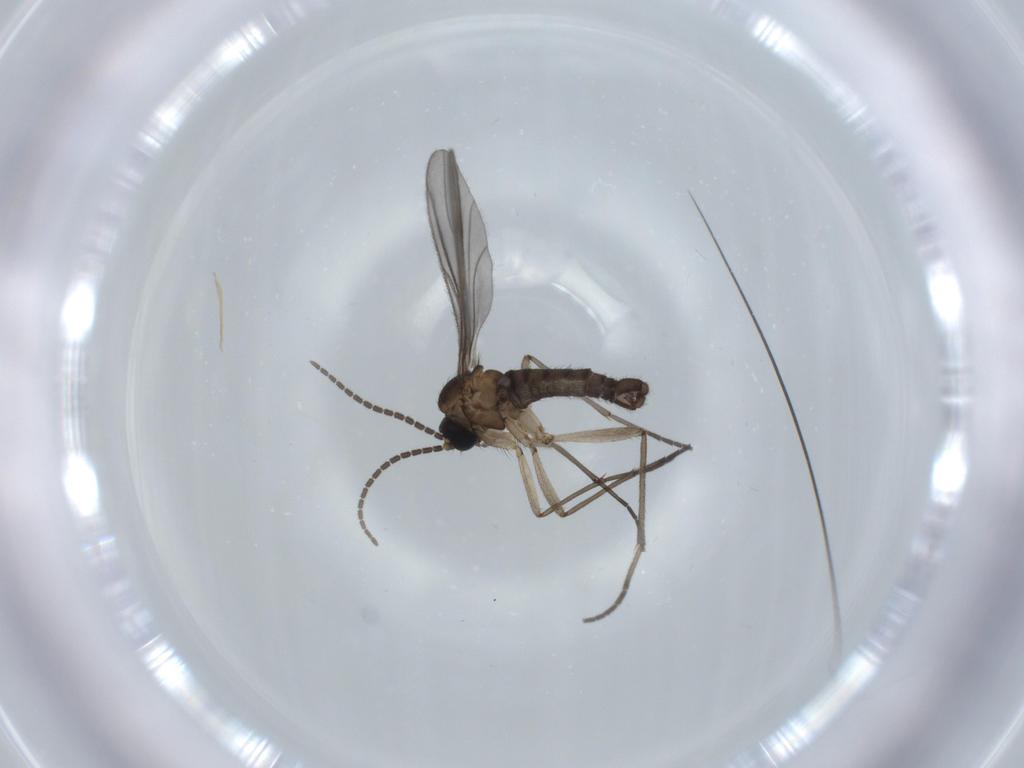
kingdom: Animalia
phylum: Arthropoda
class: Insecta
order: Diptera
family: Sciaridae
